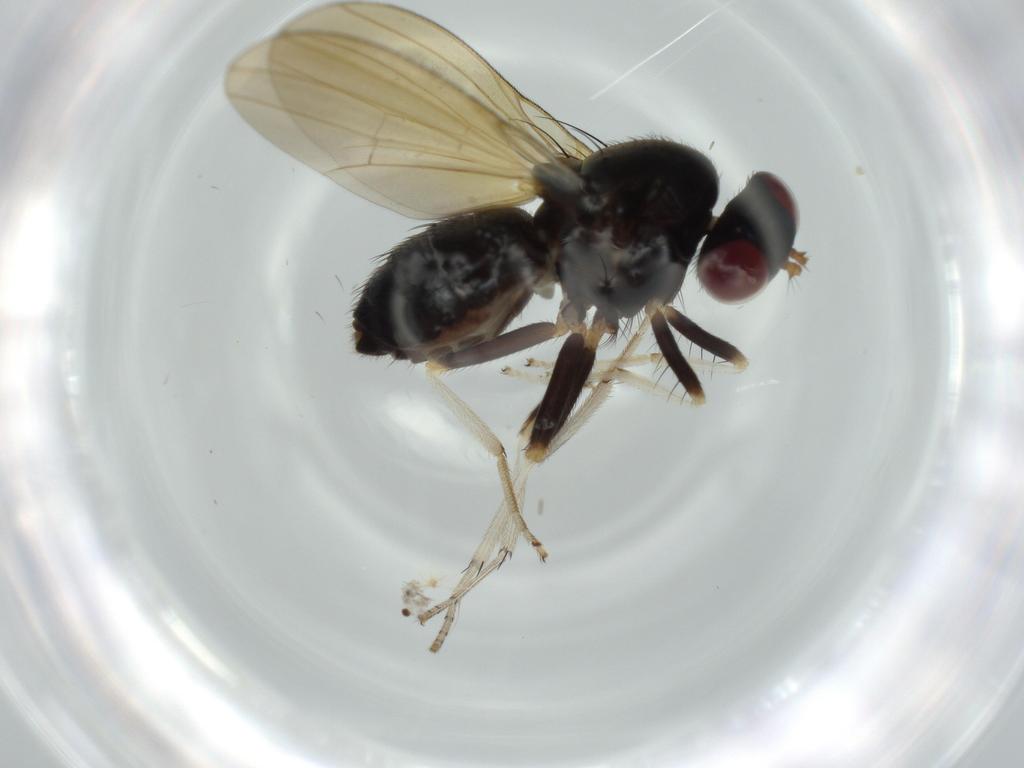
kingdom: Animalia
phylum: Arthropoda
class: Insecta
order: Diptera
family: Lauxaniidae
